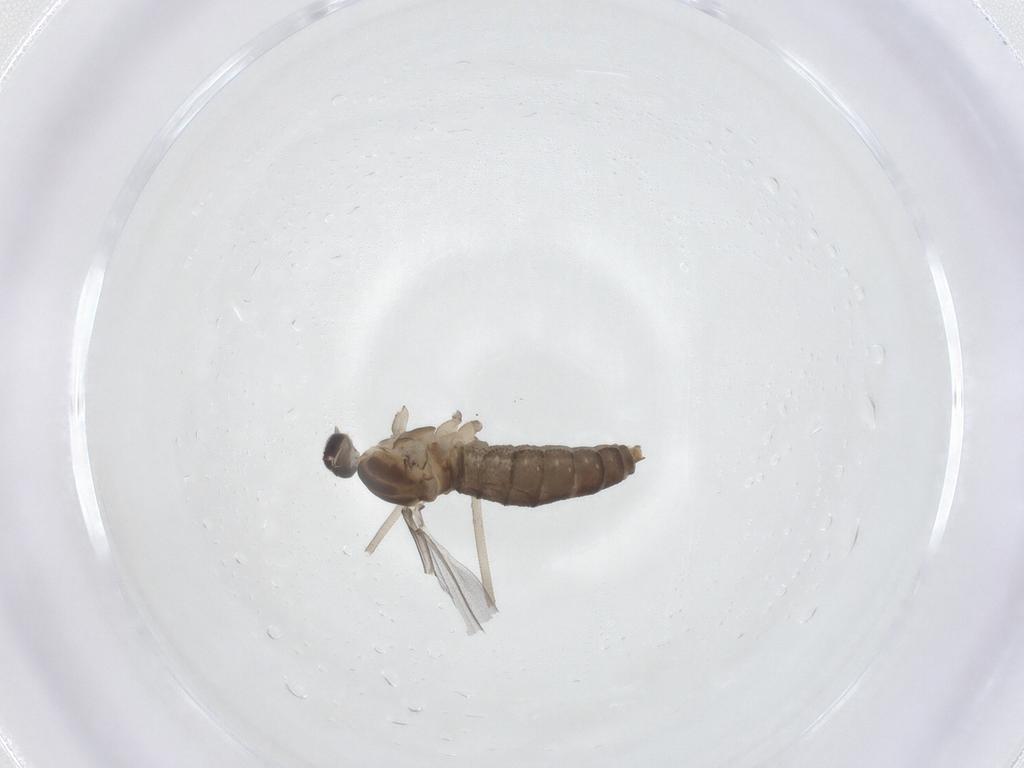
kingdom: Animalia
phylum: Arthropoda
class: Insecta
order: Diptera
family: Cecidomyiidae
